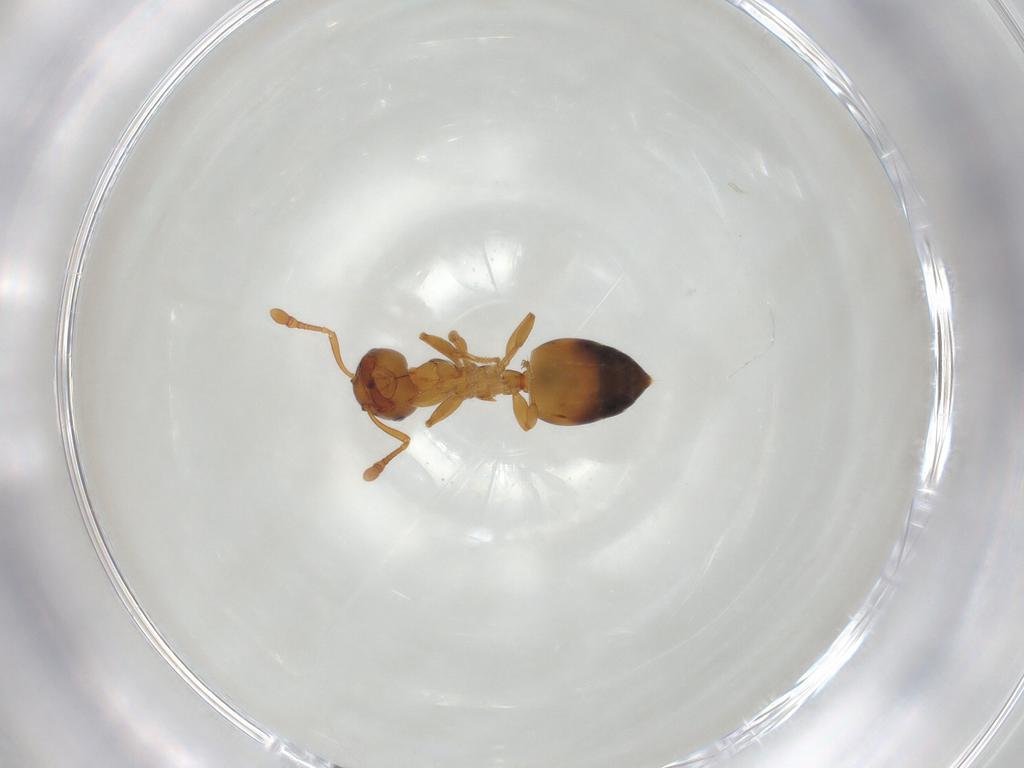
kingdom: Animalia
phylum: Arthropoda
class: Insecta
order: Hymenoptera
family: Formicidae
